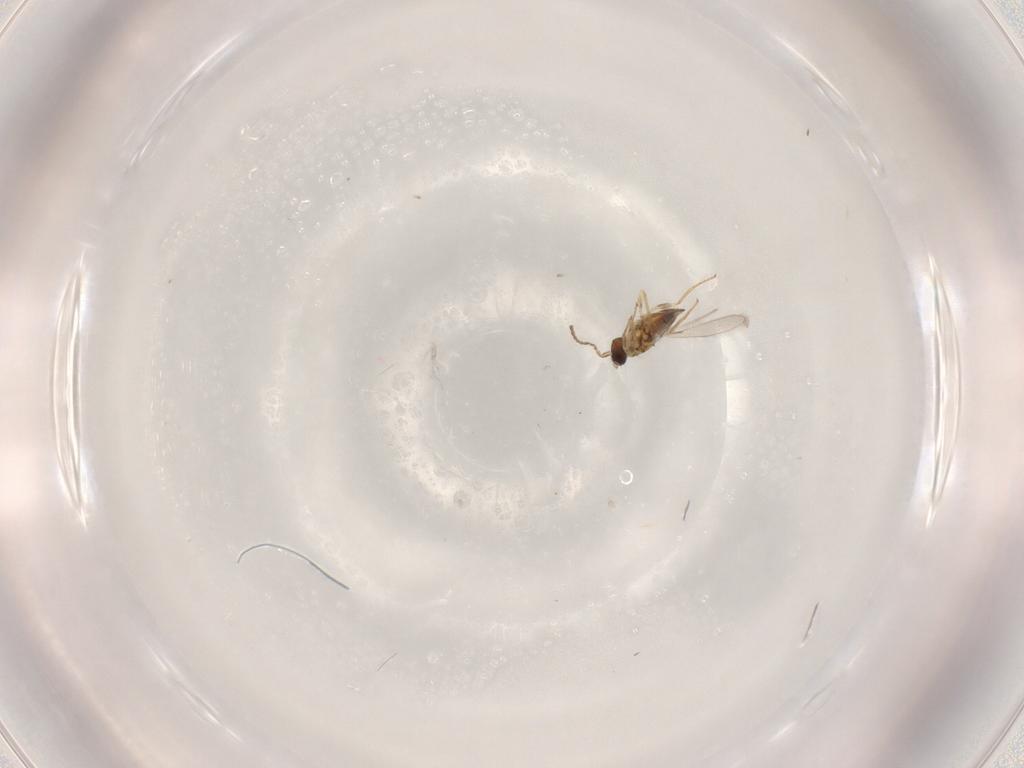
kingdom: Animalia
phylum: Arthropoda
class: Insecta
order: Hymenoptera
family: Mymaridae
